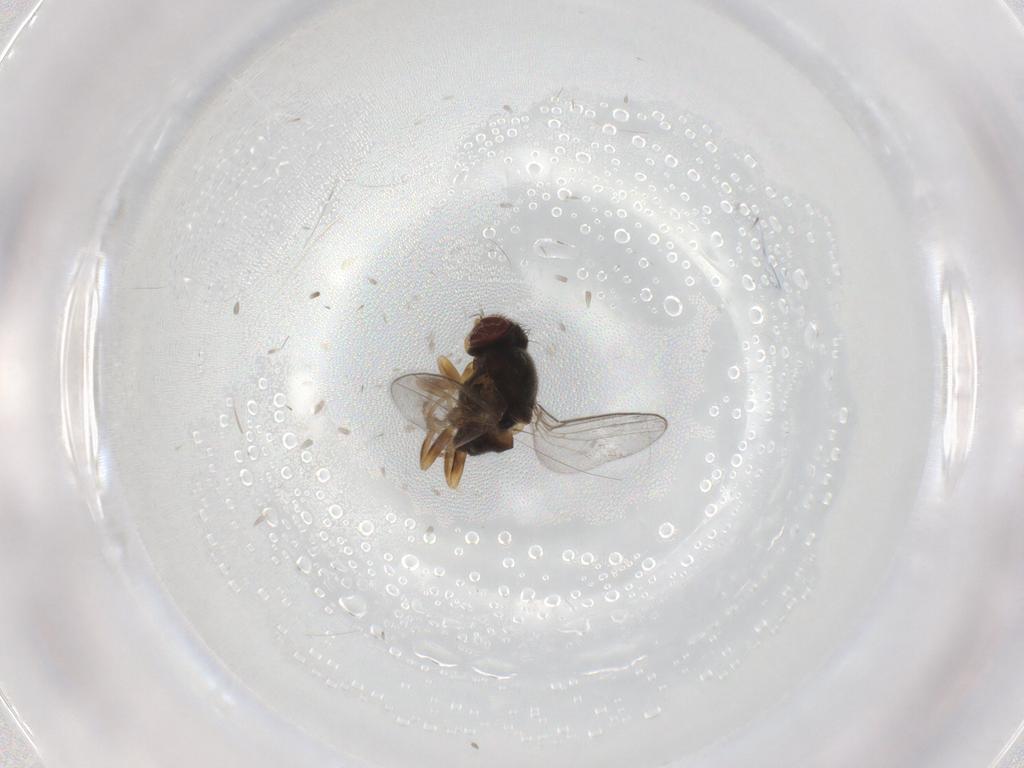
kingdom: Animalia
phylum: Arthropoda
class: Insecta
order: Diptera
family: Chloropidae
